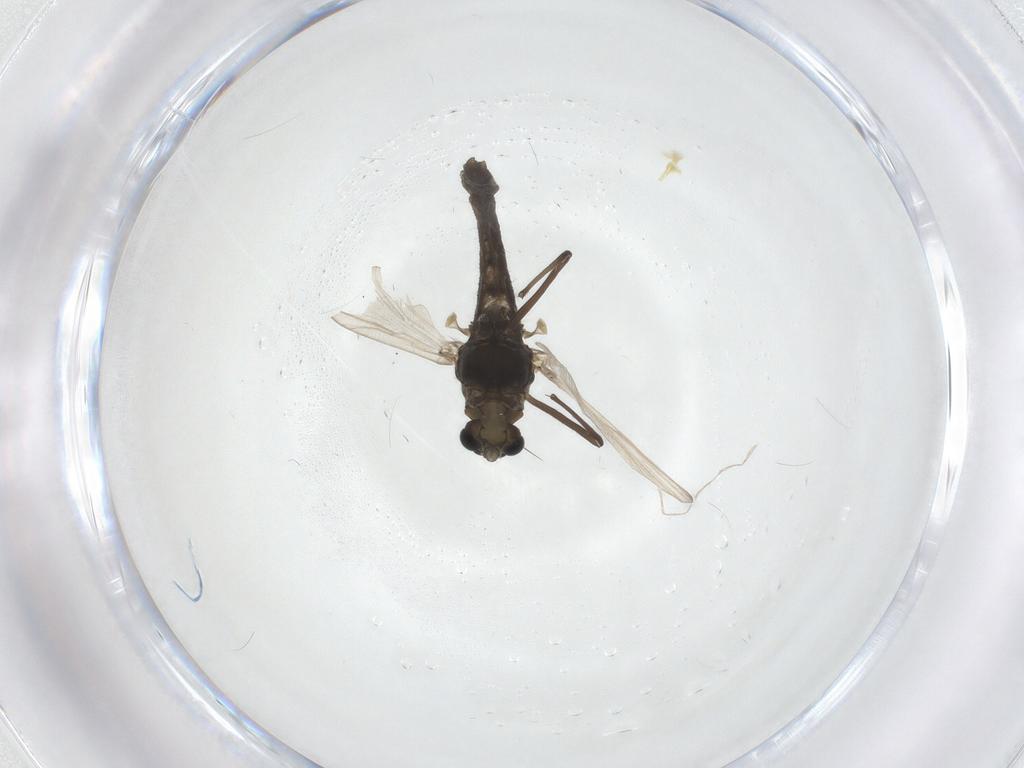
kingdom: Animalia
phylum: Arthropoda
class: Insecta
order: Diptera
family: Chironomidae
